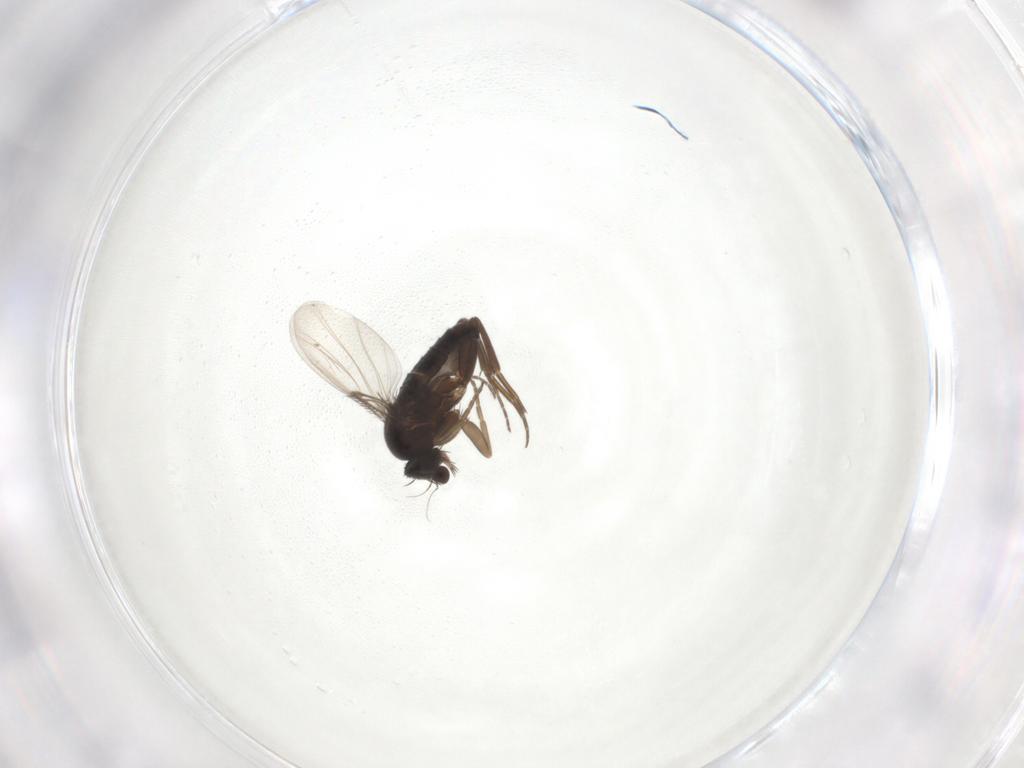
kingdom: Animalia
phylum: Arthropoda
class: Insecta
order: Diptera
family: Phoridae
